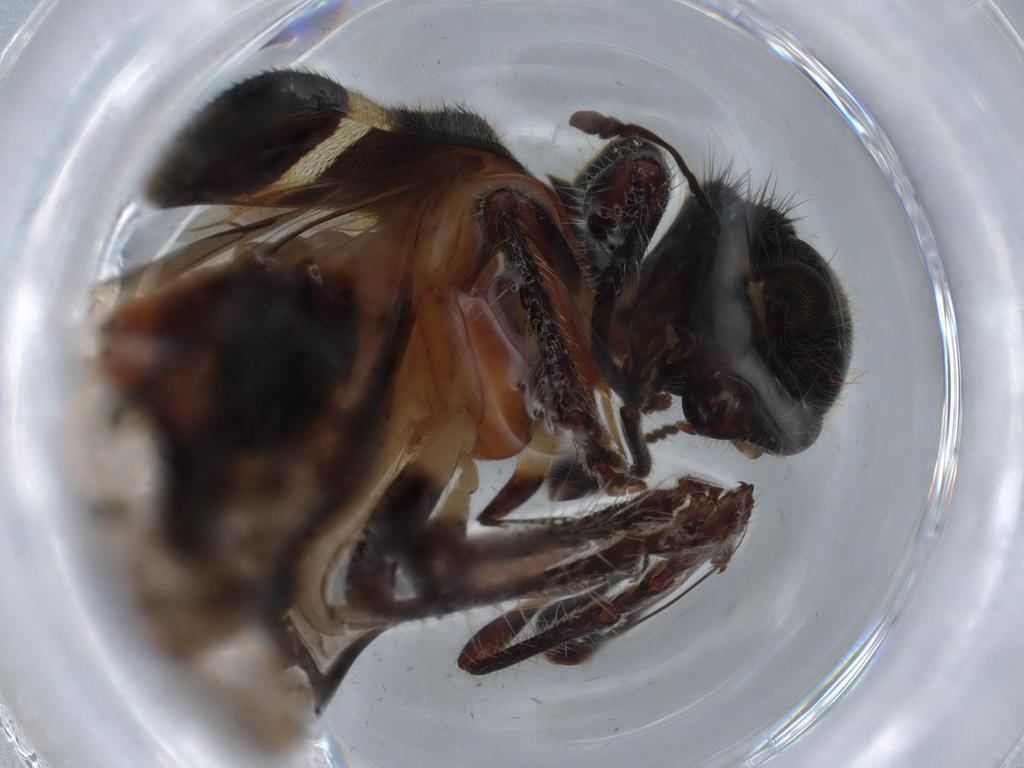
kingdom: Animalia
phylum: Arthropoda
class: Insecta
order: Coleoptera
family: Cleridae
